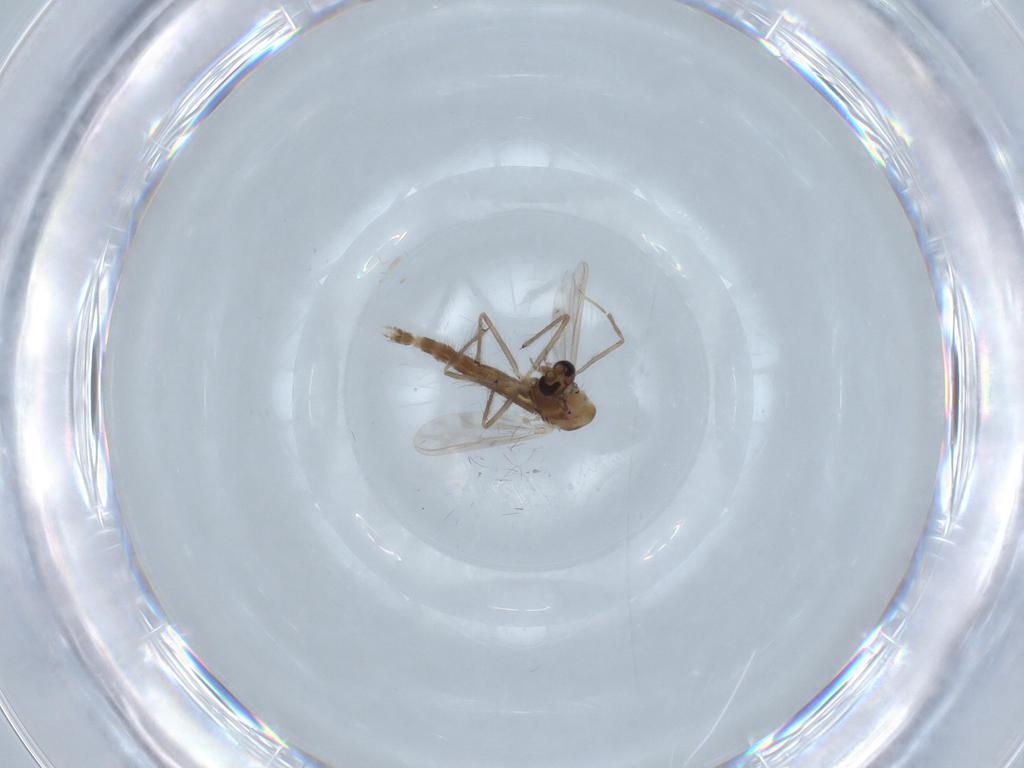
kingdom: Animalia
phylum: Arthropoda
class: Insecta
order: Diptera
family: Chironomidae
